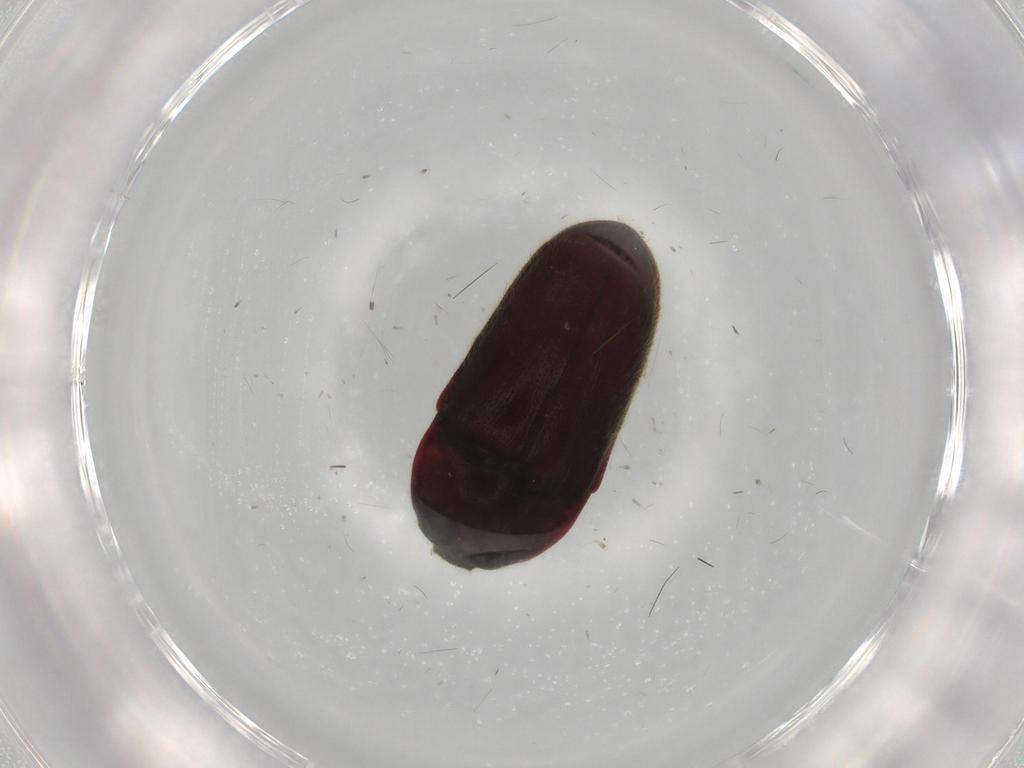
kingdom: Animalia
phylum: Arthropoda
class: Insecta
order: Coleoptera
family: Throscidae
